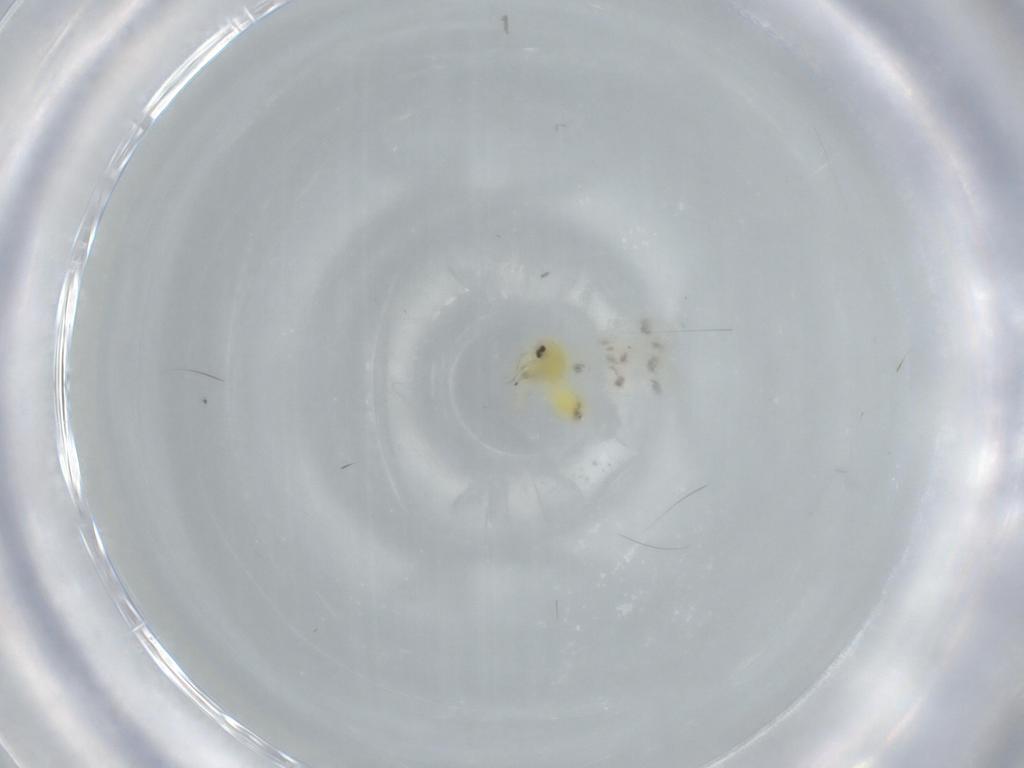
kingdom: Animalia
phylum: Arthropoda
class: Insecta
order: Hemiptera
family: Aleyrodidae
